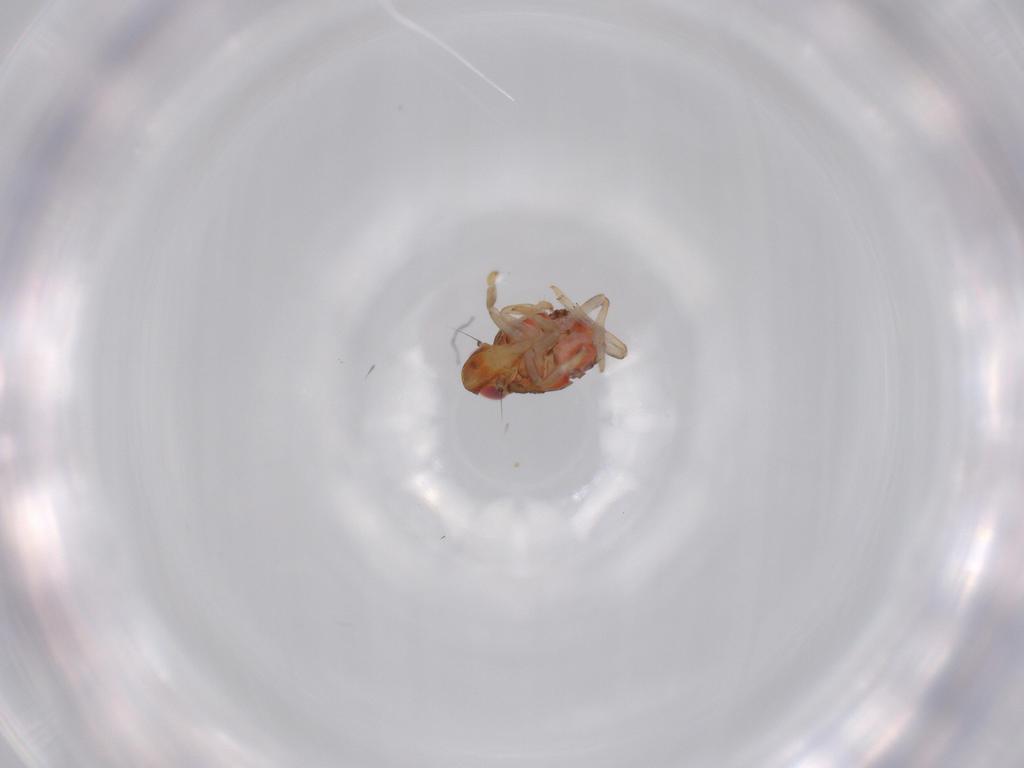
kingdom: Animalia
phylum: Arthropoda
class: Insecta
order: Hemiptera
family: Issidae
